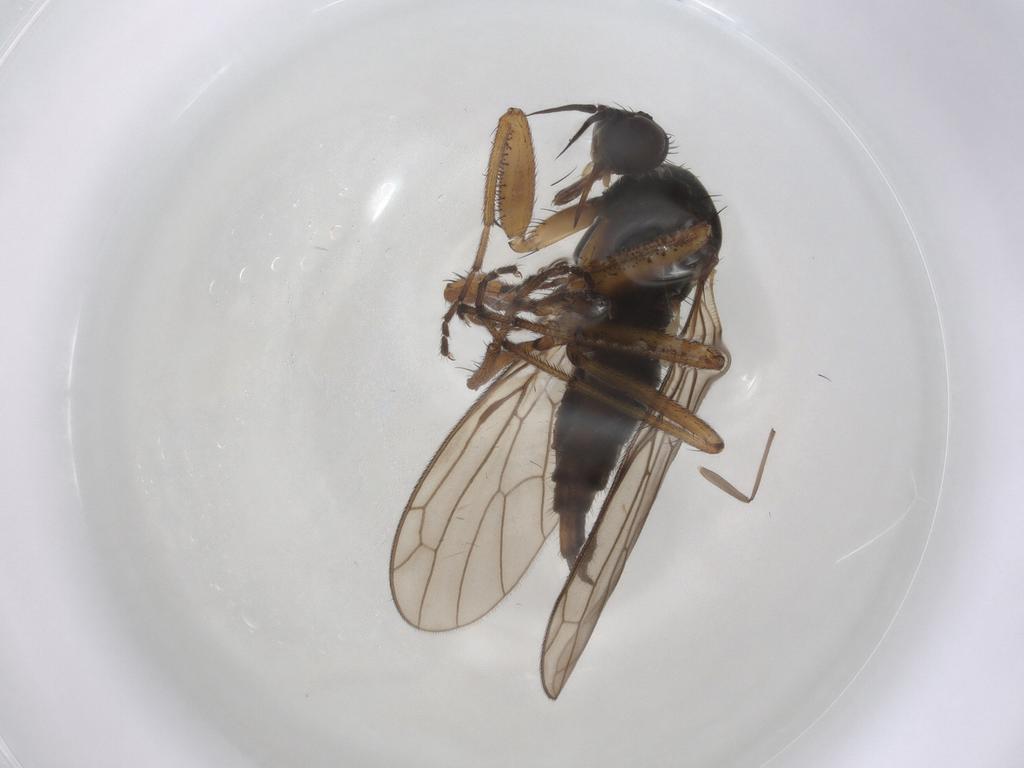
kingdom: Animalia
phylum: Arthropoda
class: Insecta
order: Diptera
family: Empididae
